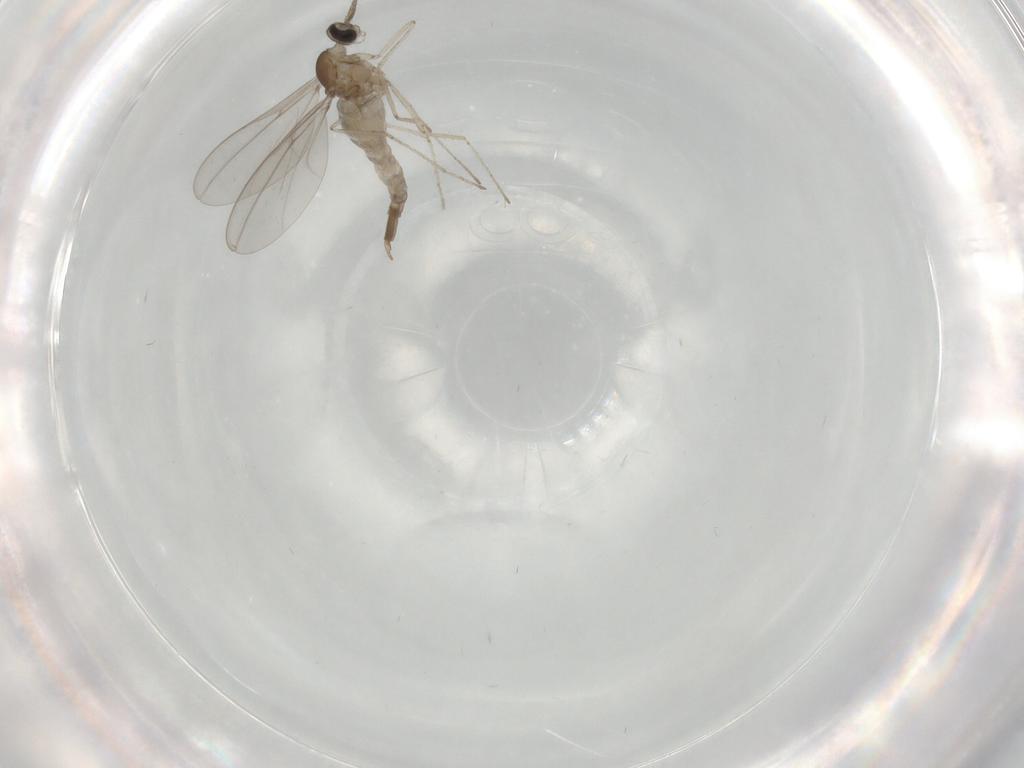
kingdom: Animalia
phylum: Arthropoda
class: Insecta
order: Diptera
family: Cecidomyiidae
